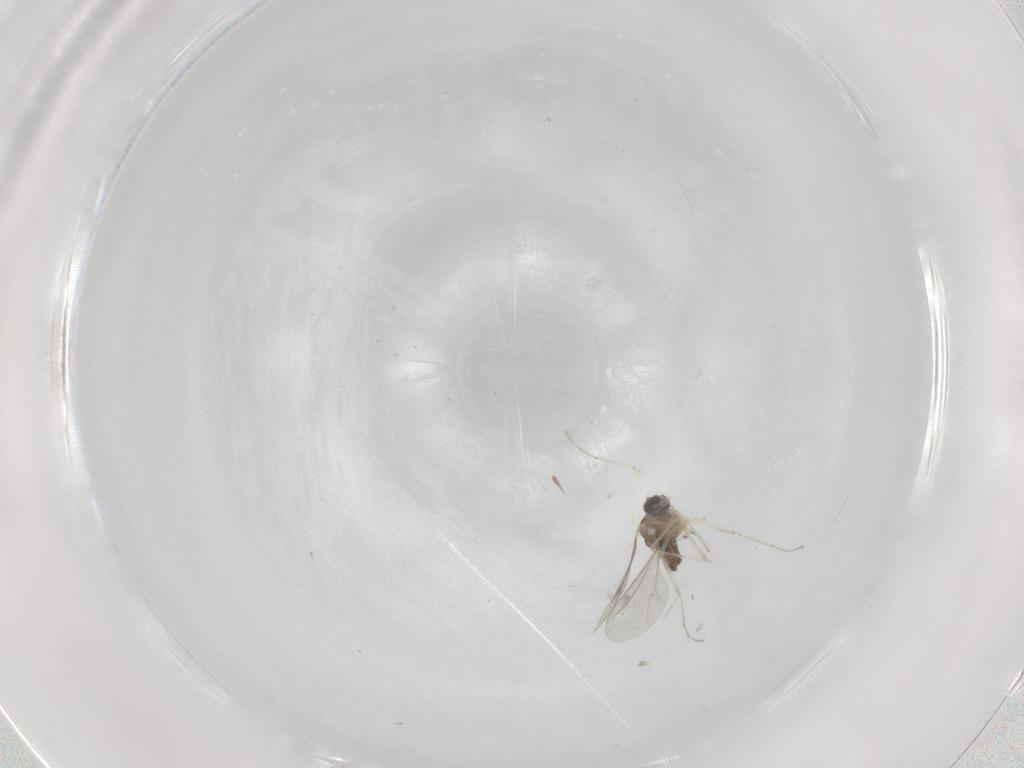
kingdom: Animalia
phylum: Arthropoda
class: Insecta
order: Diptera
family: Cecidomyiidae
